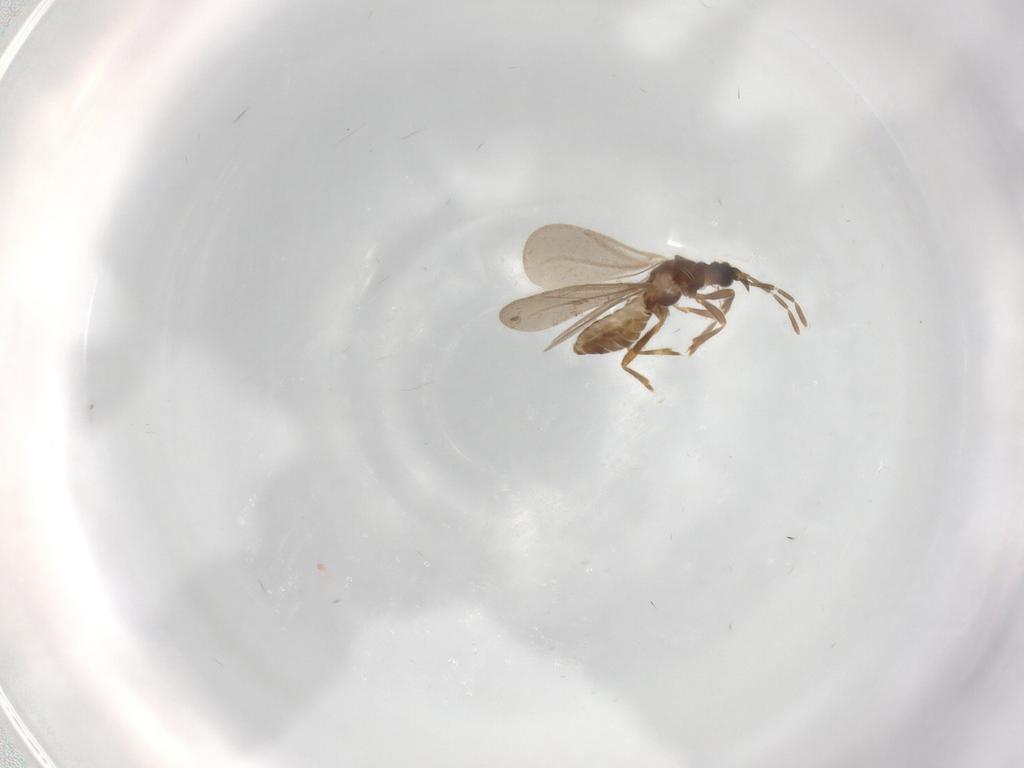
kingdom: Animalia
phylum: Arthropoda
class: Insecta
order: Hemiptera
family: Enicocephalidae
